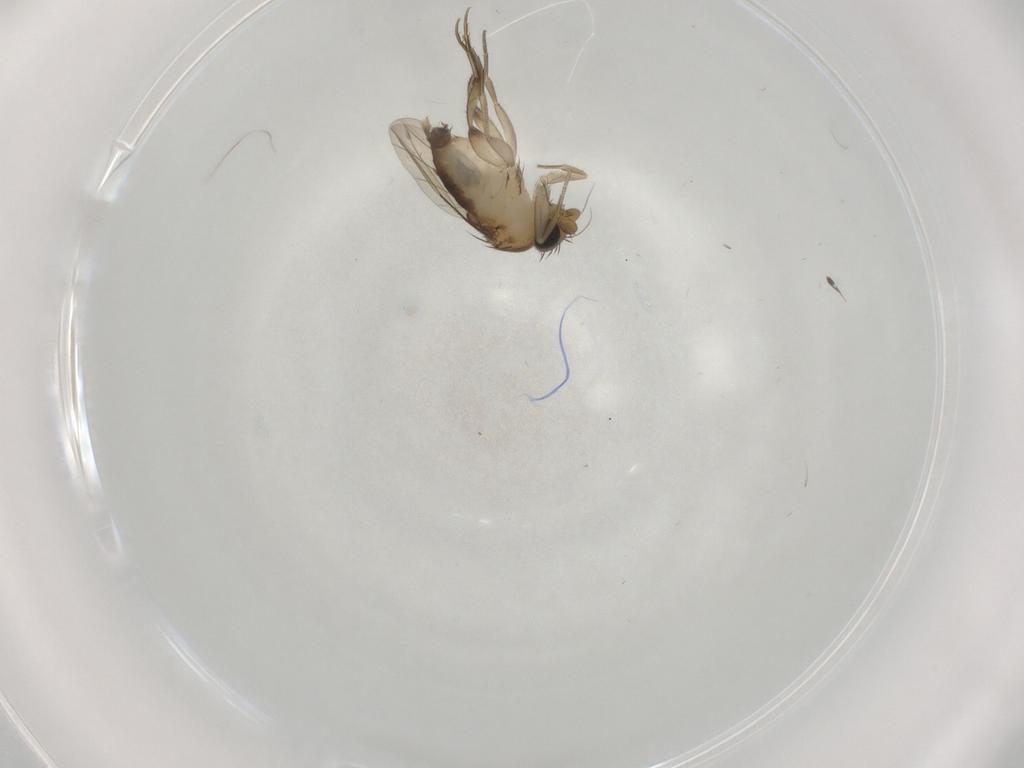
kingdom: Animalia
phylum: Arthropoda
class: Insecta
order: Diptera
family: Phoridae
